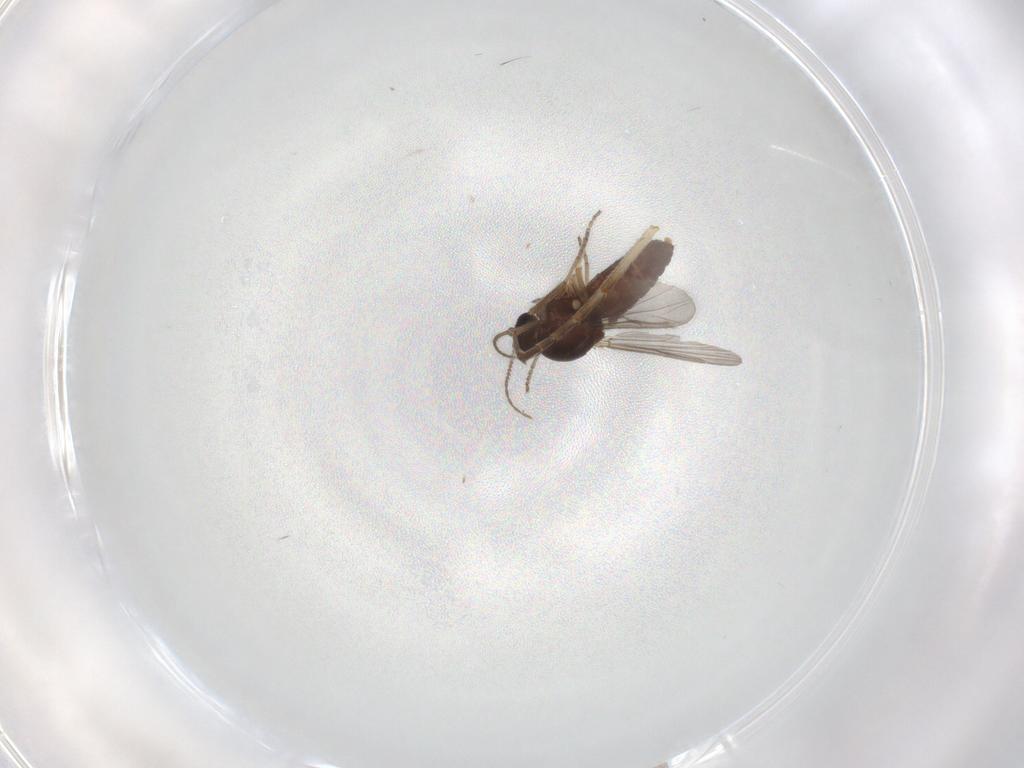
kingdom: Animalia
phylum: Arthropoda
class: Insecta
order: Diptera
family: Ceratopogonidae
